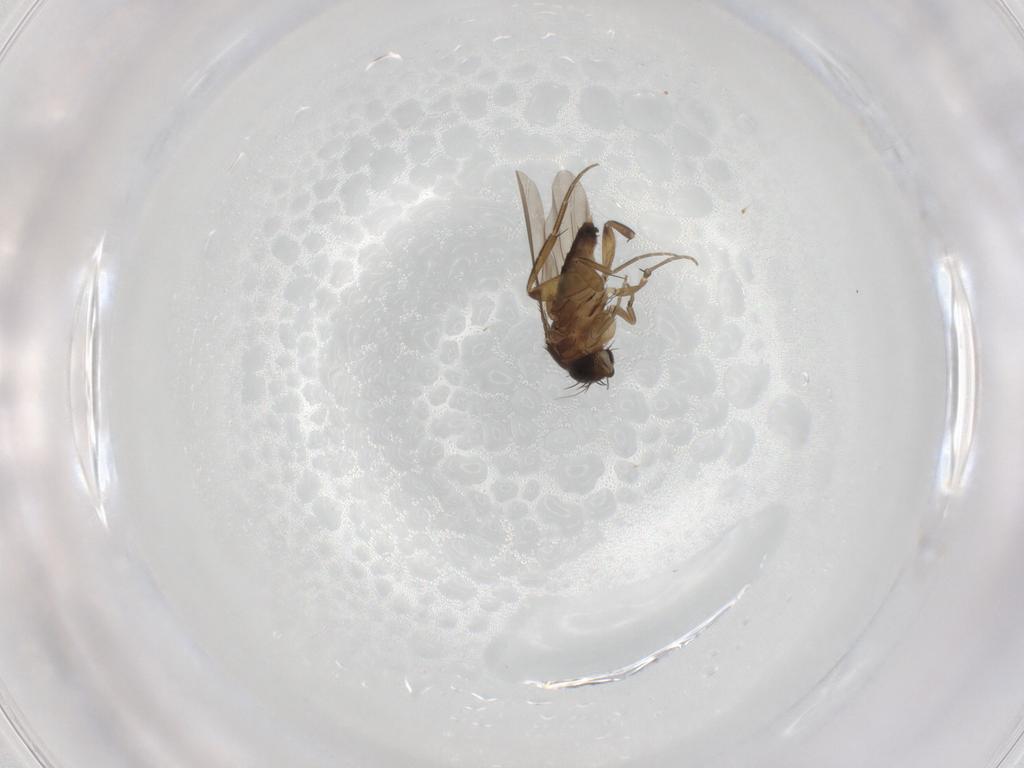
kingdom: Animalia
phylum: Arthropoda
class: Insecta
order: Diptera
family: Phoridae
